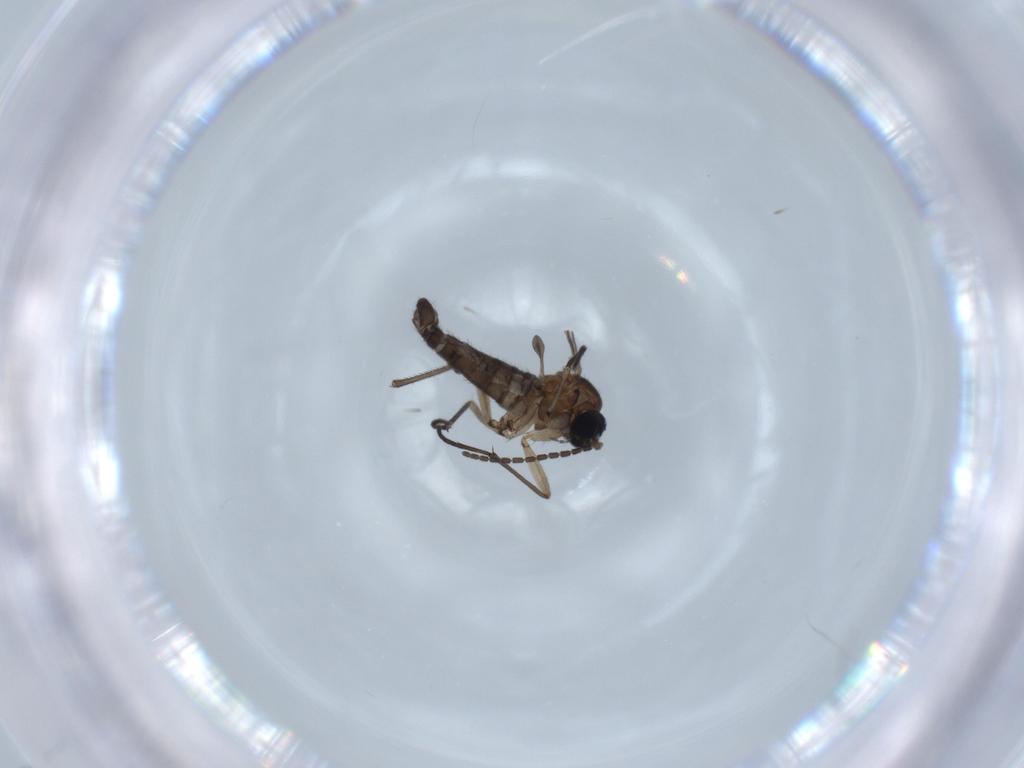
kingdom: Animalia
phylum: Arthropoda
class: Insecta
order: Diptera
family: Sciaridae
